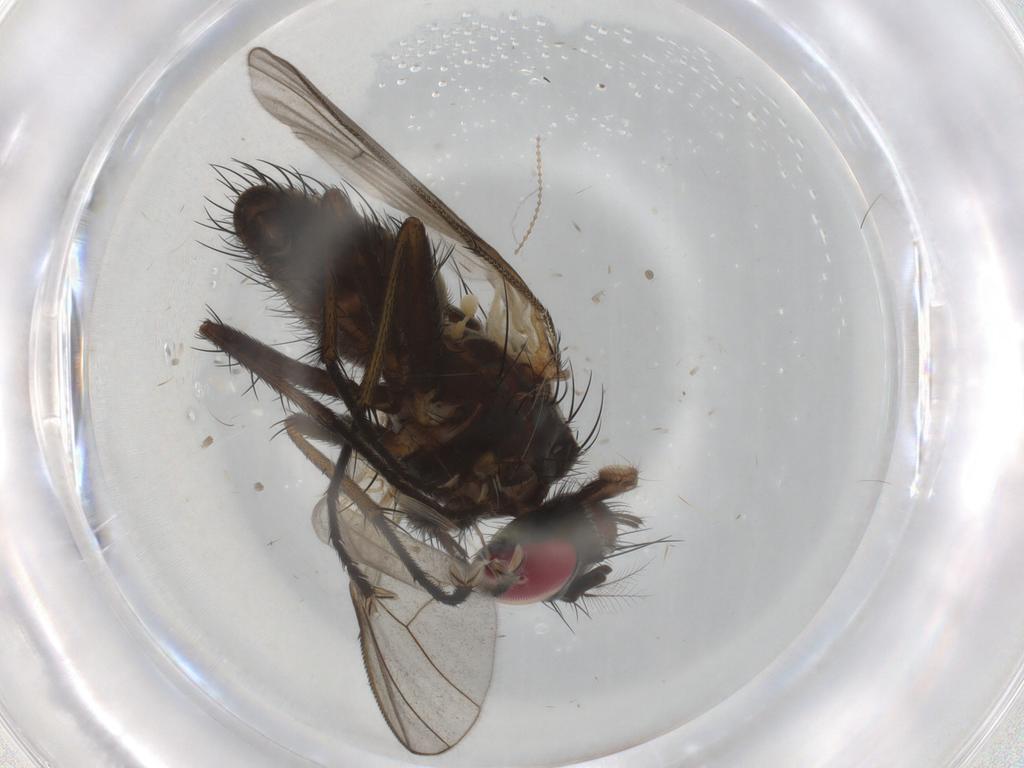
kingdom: Animalia
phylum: Arthropoda
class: Insecta
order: Diptera
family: Muscidae
